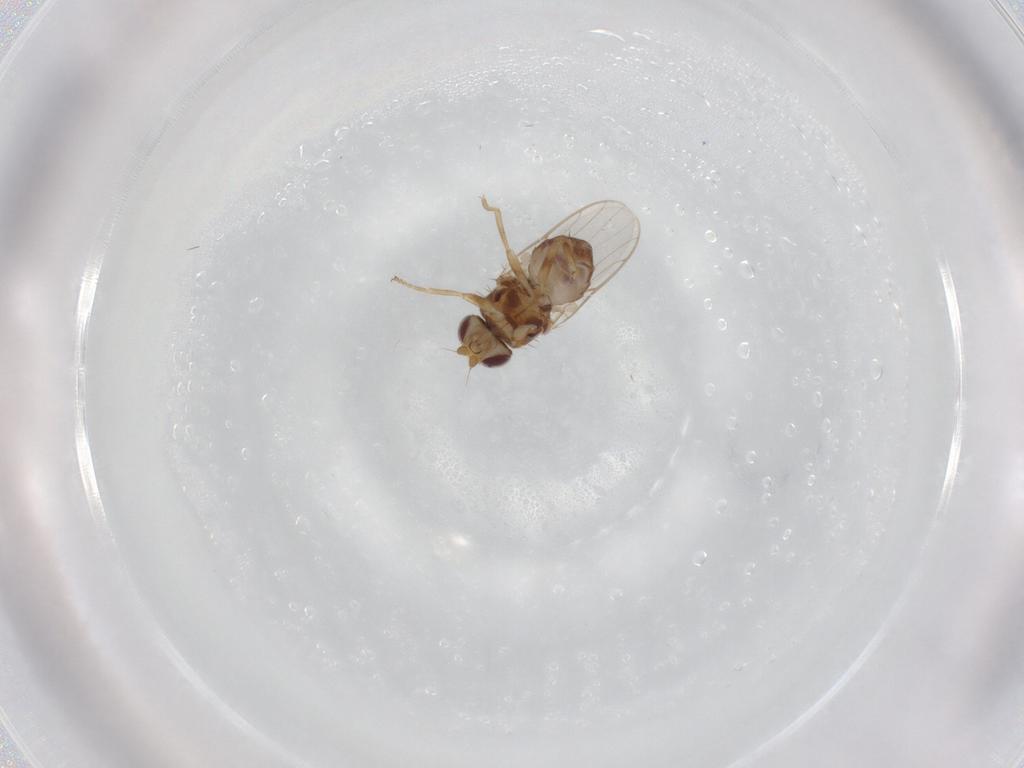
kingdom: Animalia
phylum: Arthropoda
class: Insecta
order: Diptera
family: Chloropidae
